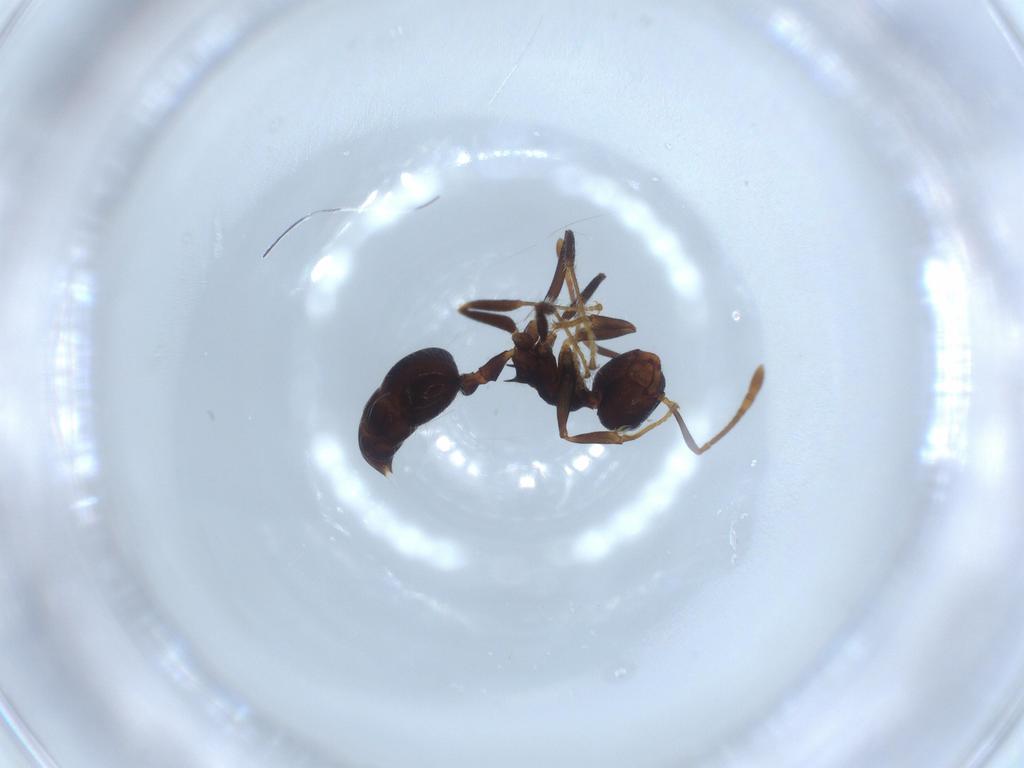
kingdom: Animalia
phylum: Arthropoda
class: Insecta
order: Hymenoptera
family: Formicidae
